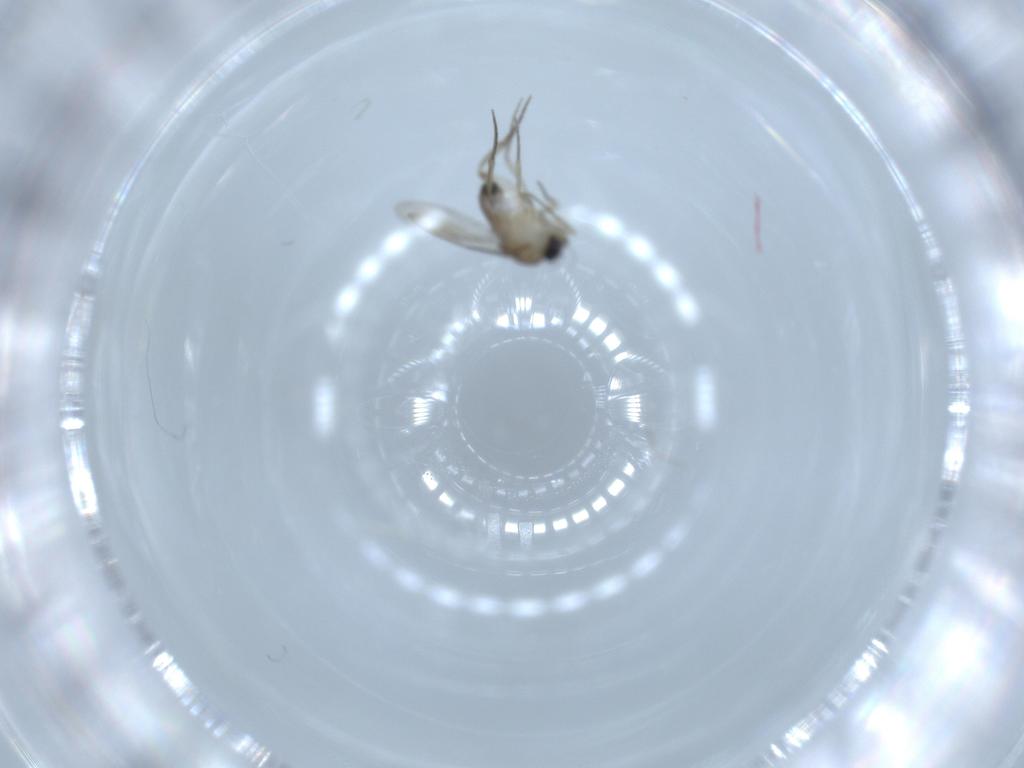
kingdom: Animalia
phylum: Arthropoda
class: Insecta
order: Diptera
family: Phoridae
